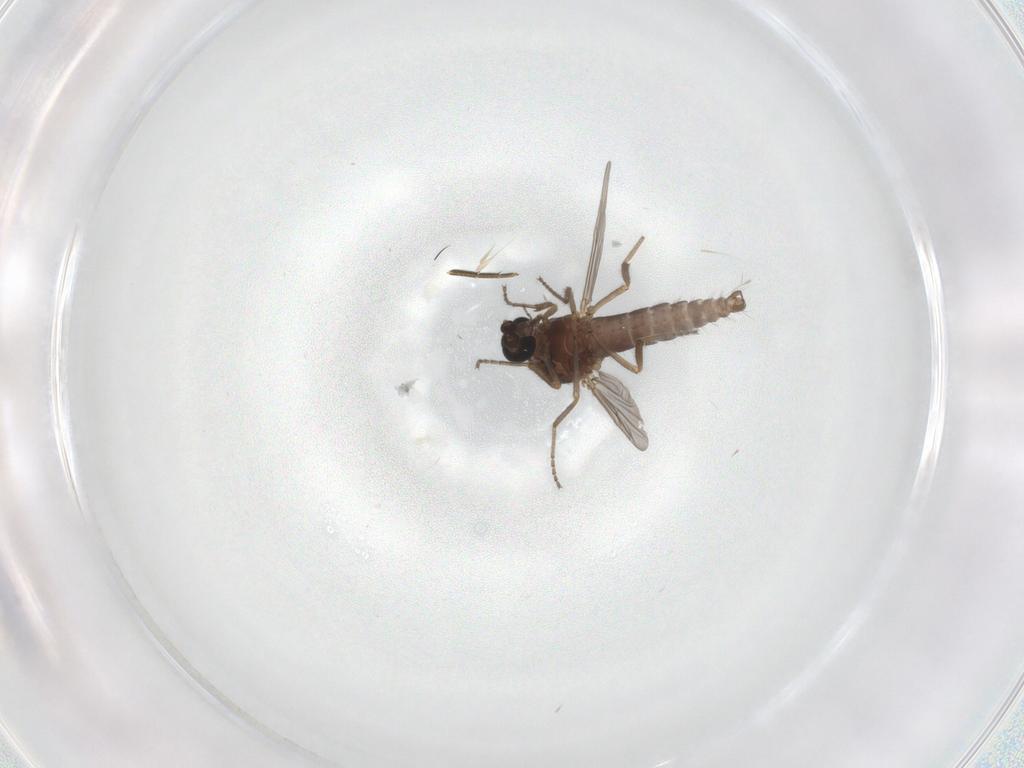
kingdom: Animalia
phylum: Arthropoda
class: Insecta
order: Diptera
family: Ceratopogonidae
